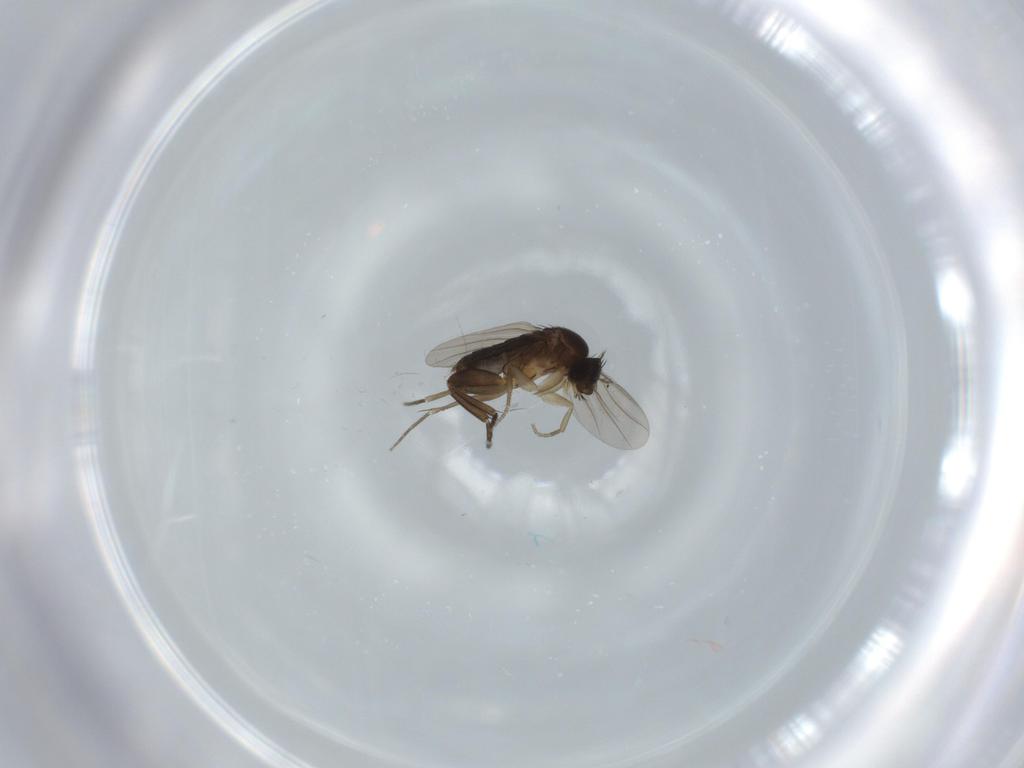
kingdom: Animalia
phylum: Arthropoda
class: Insecta
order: Diptera
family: Phoridae
